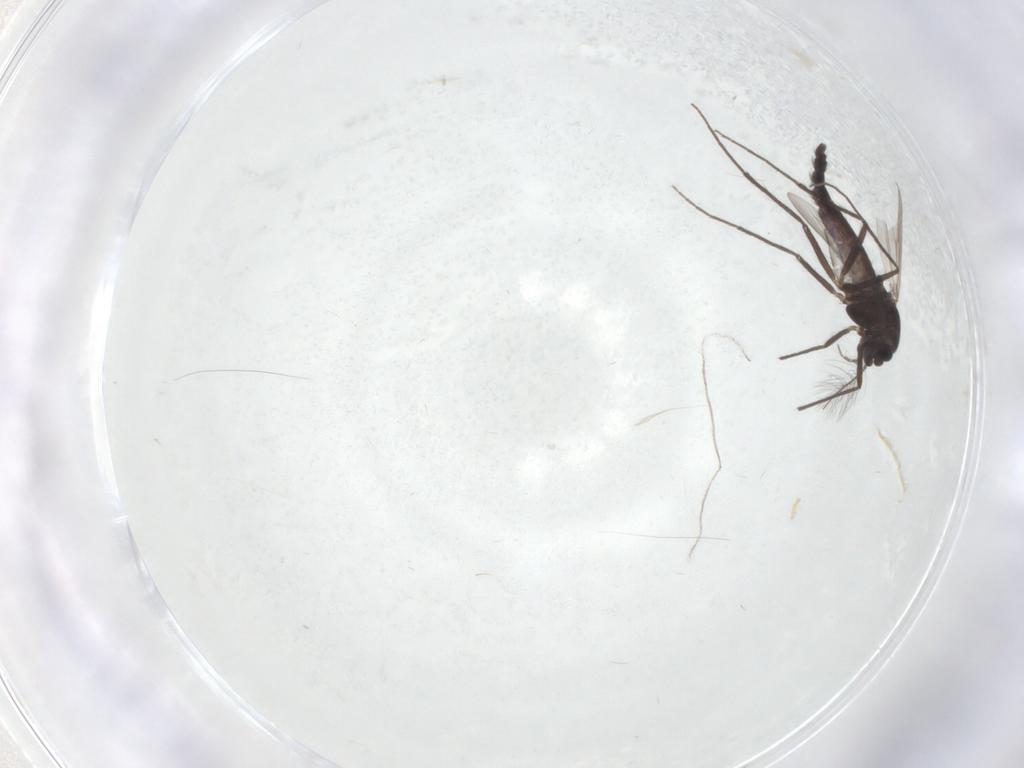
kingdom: Animalia
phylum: Arthropoda
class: Insecta
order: Diptera
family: Chironomidae
